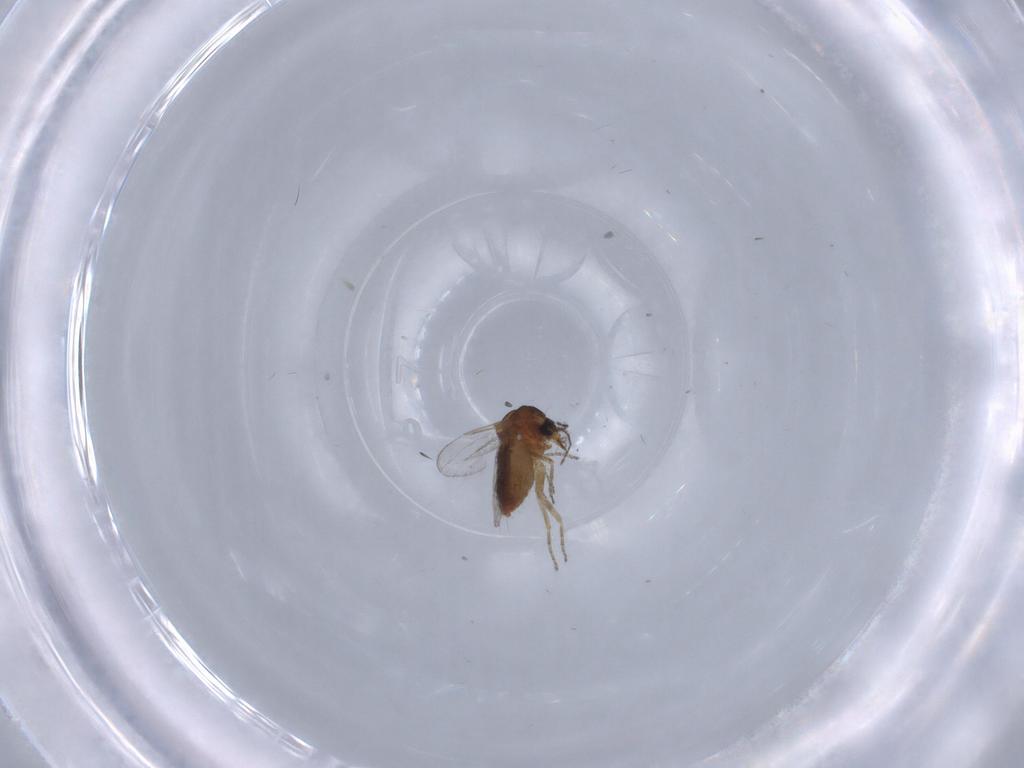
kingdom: Animalia
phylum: Arthropoda
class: Insecta
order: Diptera
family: Ceratopogonidae
